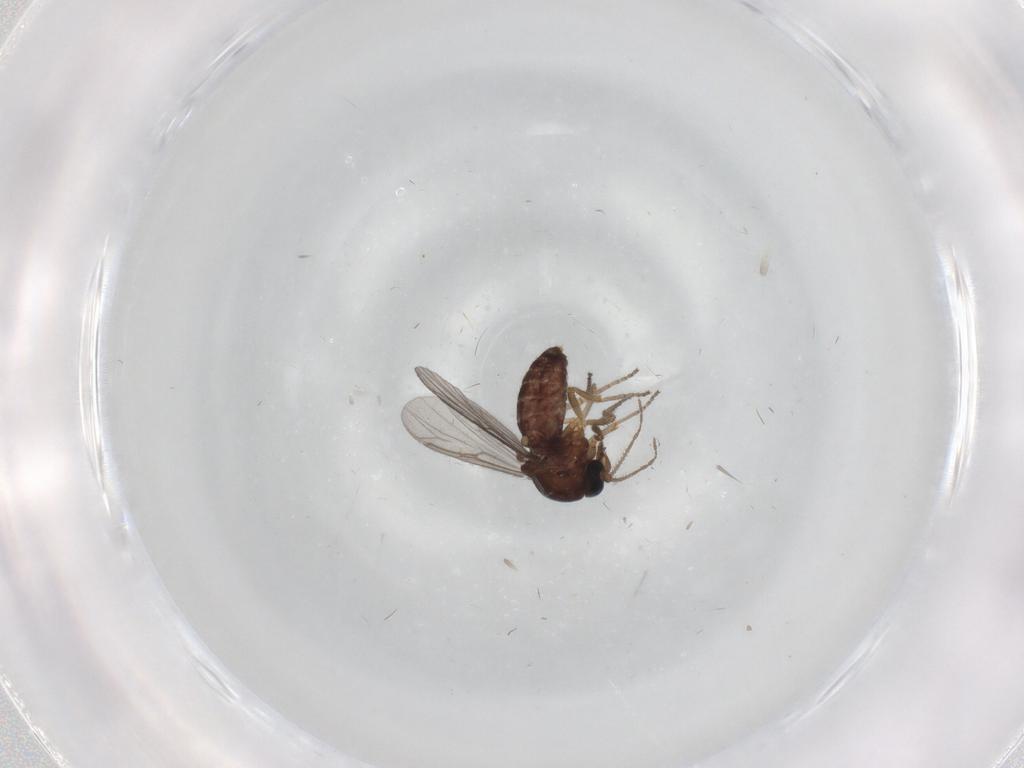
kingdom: Animalia
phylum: Arthropoda
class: Insecta
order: Diptera
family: Ceratopogonidae
